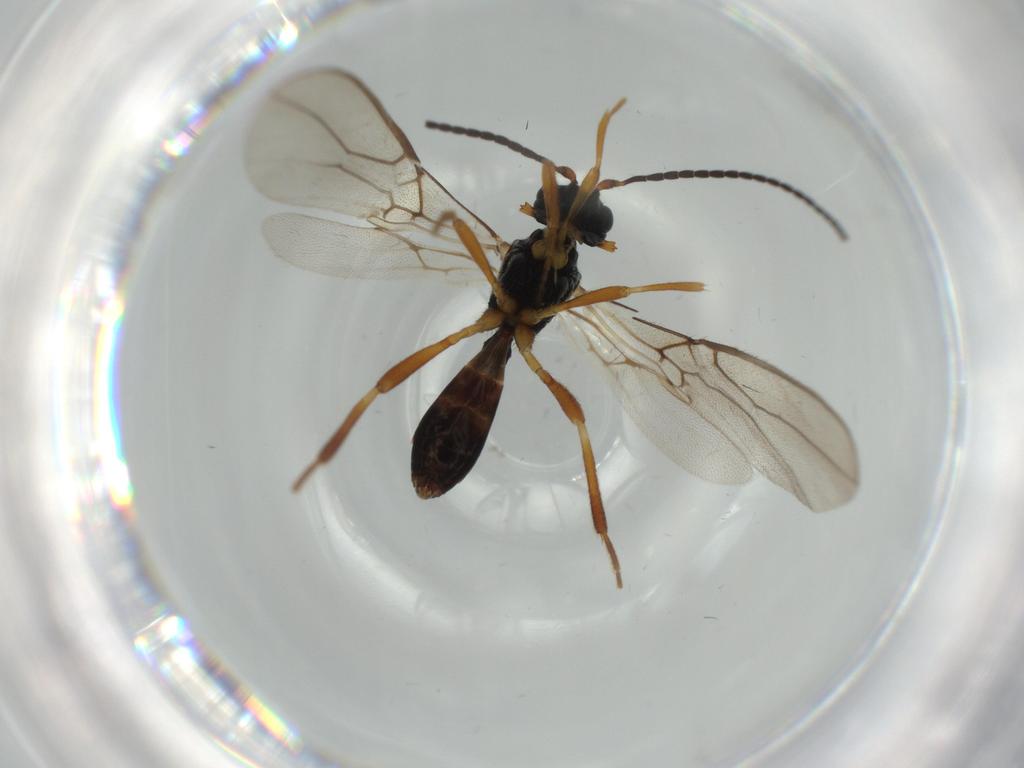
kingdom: Animalia
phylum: Arthropoda
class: Insecta
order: Hymenoptera
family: Braconidae
